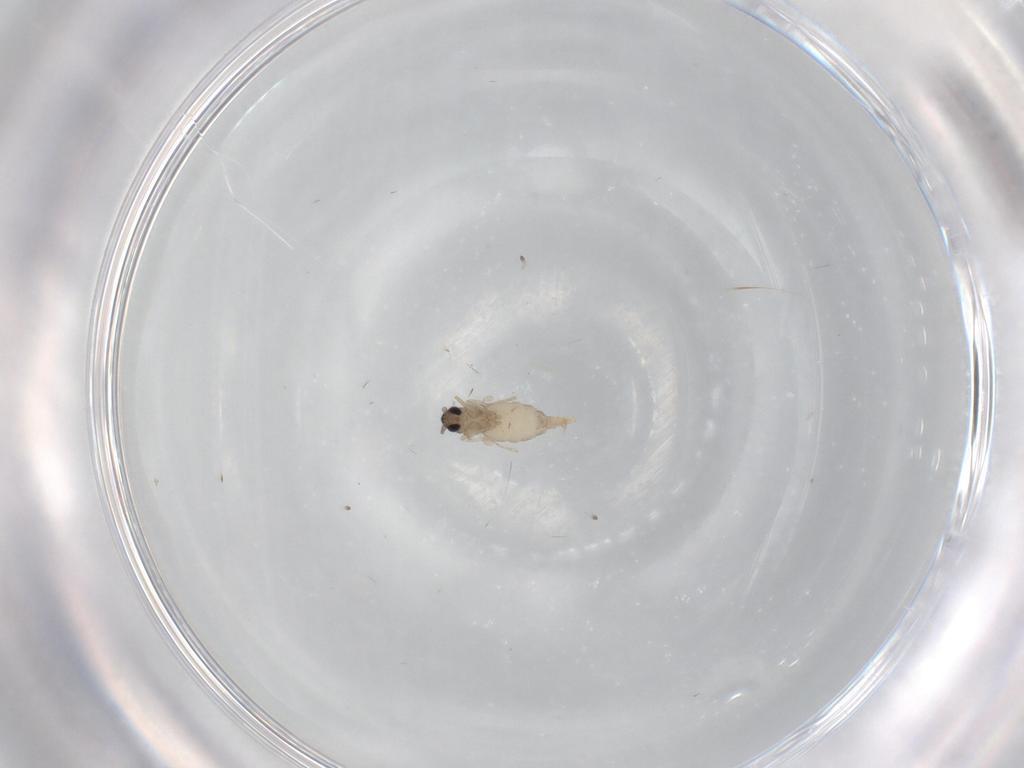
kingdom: Animalia
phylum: Arthropoda
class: Insecta
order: Diptera
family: Cecidomyiidae
